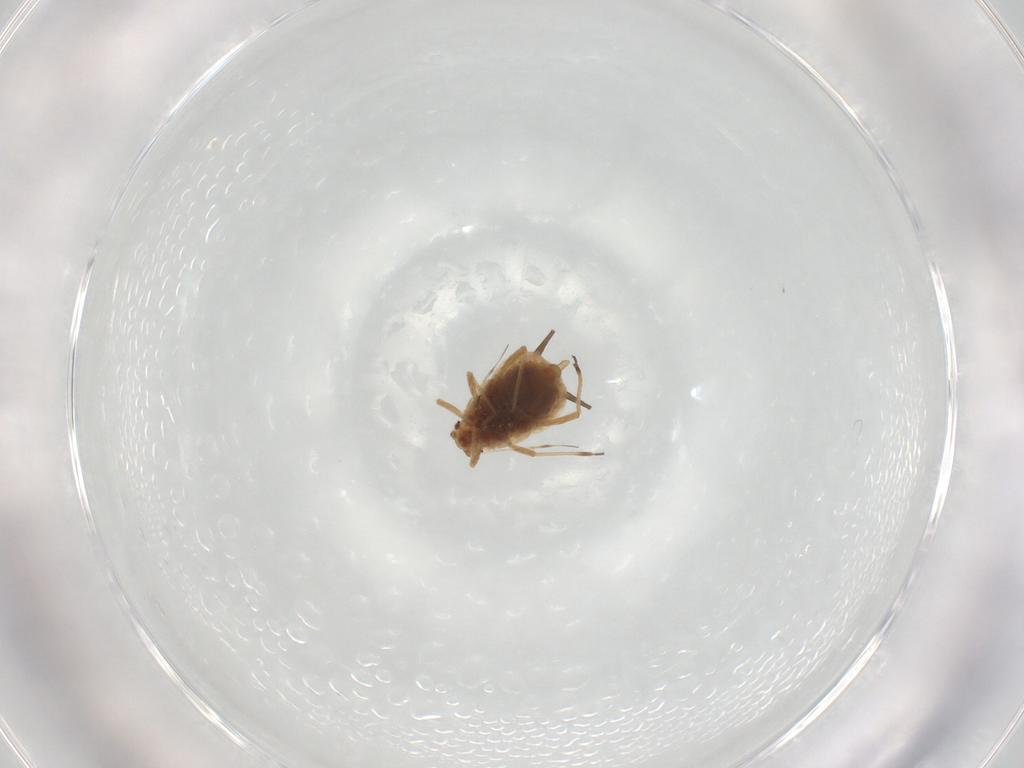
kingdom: Animalia
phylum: Arthropoda
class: Insecta
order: Hemiptera
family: Aphididae
